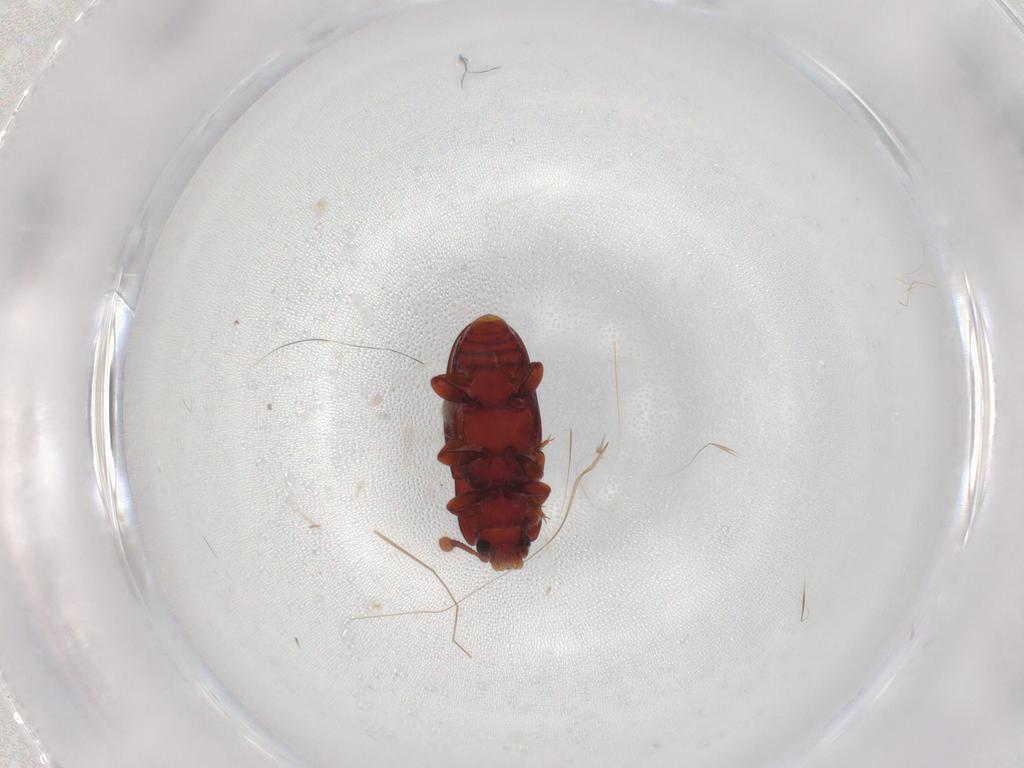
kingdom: Animalia
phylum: Arthropoda
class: Insecta
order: Coleoptera
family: Cerylonidae
